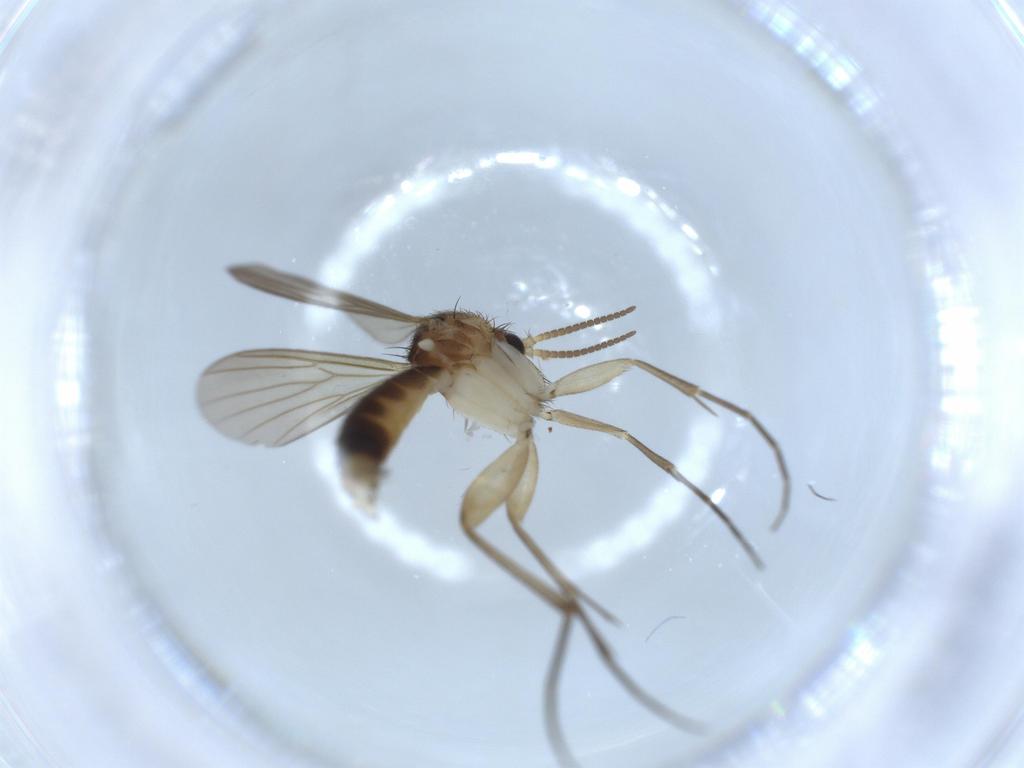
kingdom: Animalia
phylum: Arthropoda
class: Insecta
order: Diptera
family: Mycetophilidae
